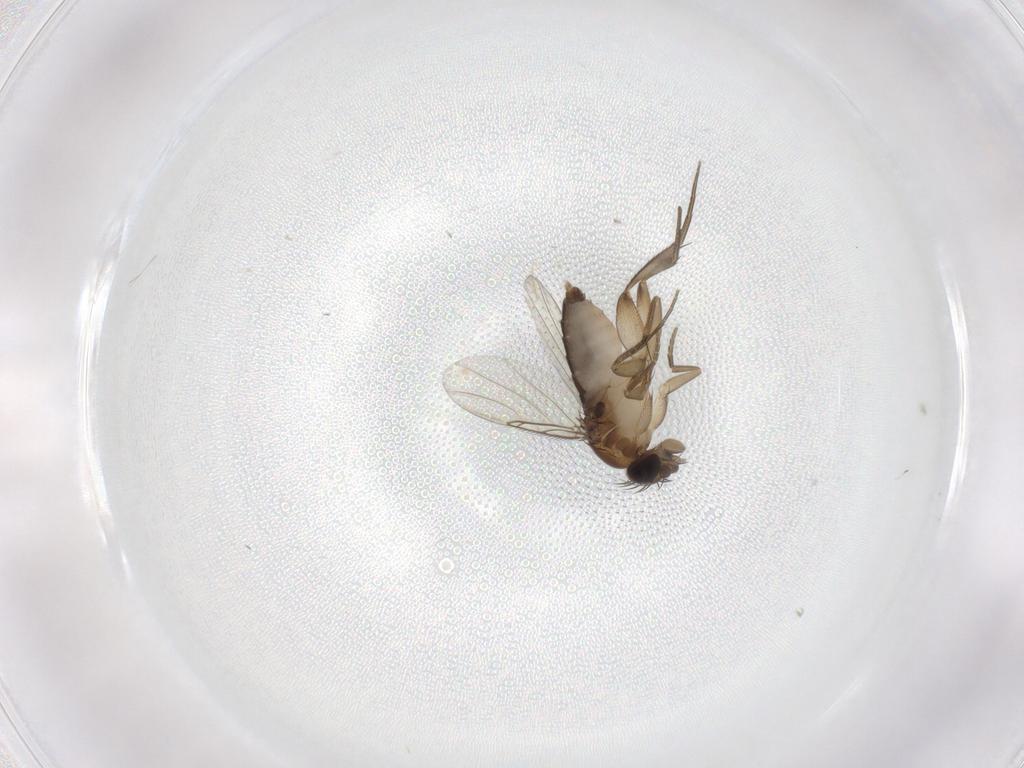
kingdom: Animalia
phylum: Arthropoda
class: Insecta
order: Diptera
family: Phoridae
